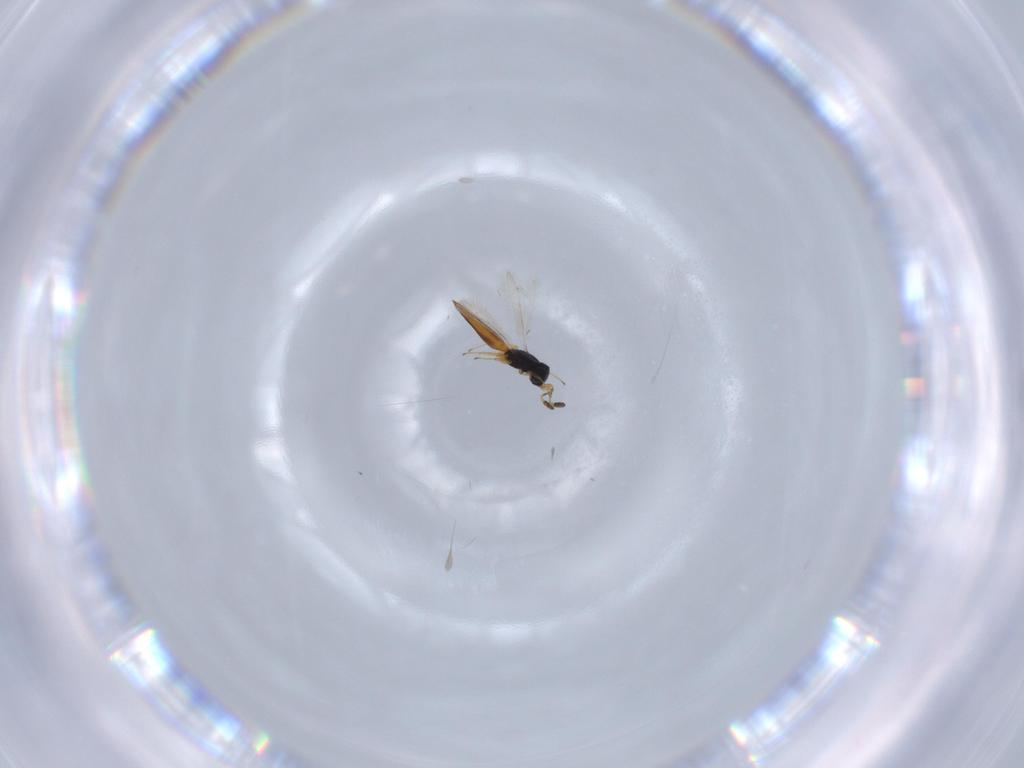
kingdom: Animalia
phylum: Arthropoda
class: Insecta
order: Hymenoptera
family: Scelionidae
